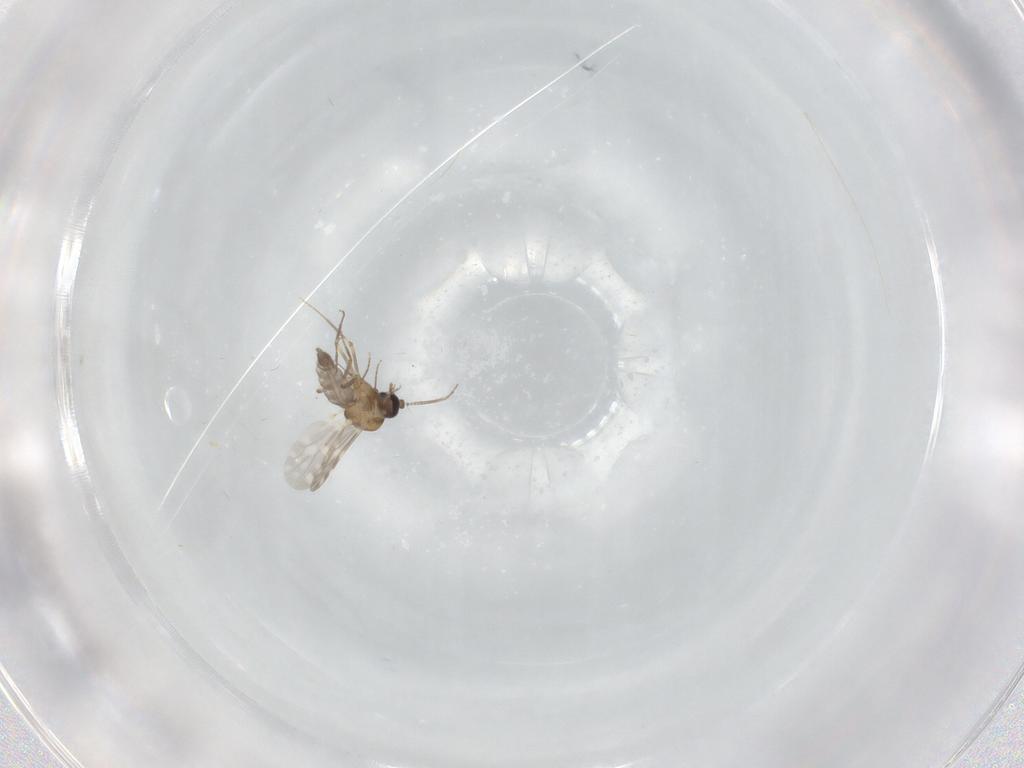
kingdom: Animalia
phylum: Arthropoda
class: Insecta
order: Diptera
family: Ceratopogonidae
